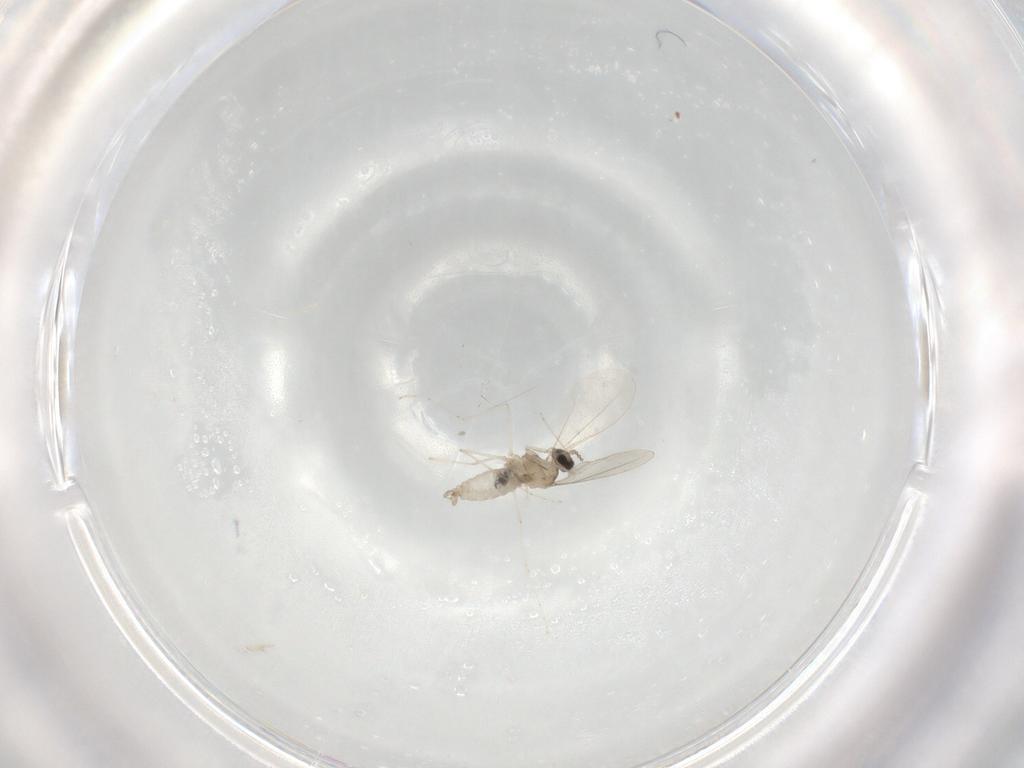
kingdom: Animalia
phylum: Arthropoda
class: Insecta
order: Diptera
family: Cecidomyiidae
